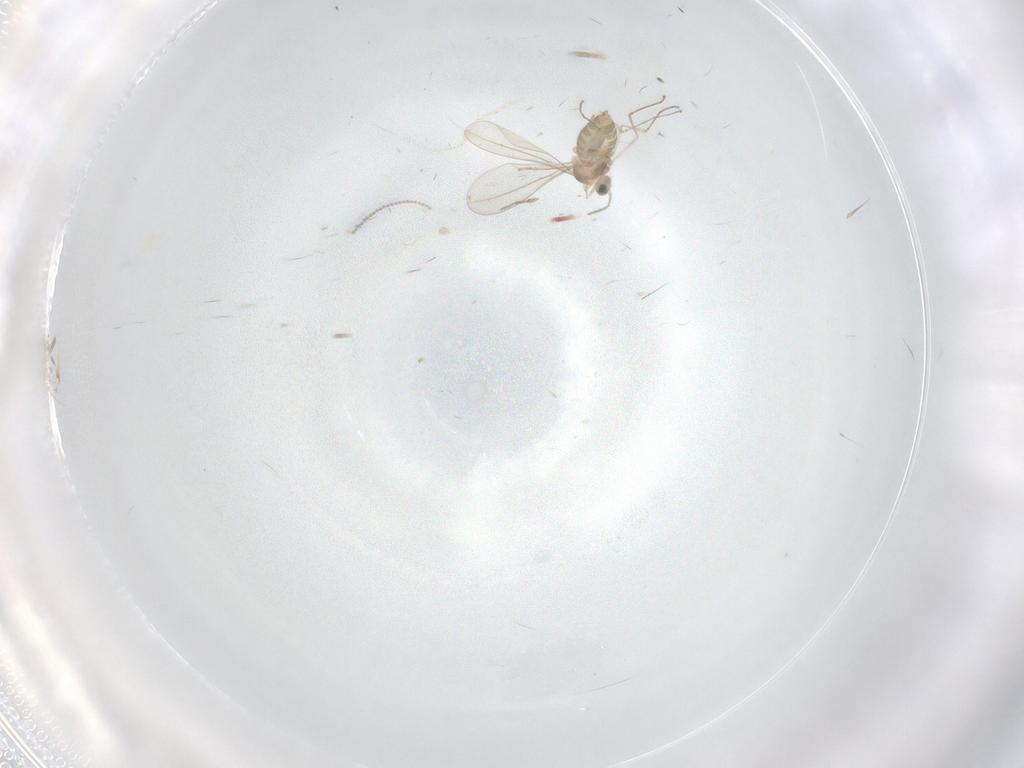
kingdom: Animalia
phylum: Arthropoda
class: Insecta
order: Diptera
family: Cecidomyiidae
